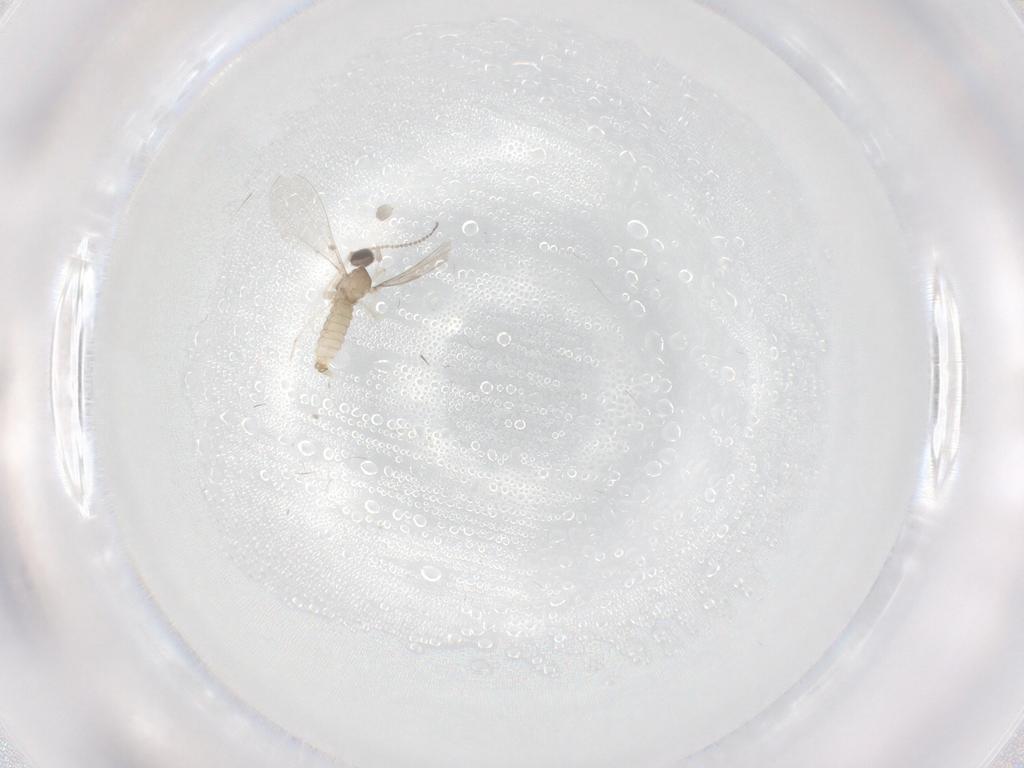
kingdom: Animalia
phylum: Arthropoda
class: Insecta
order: Diptera
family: Cecidomyiidae
